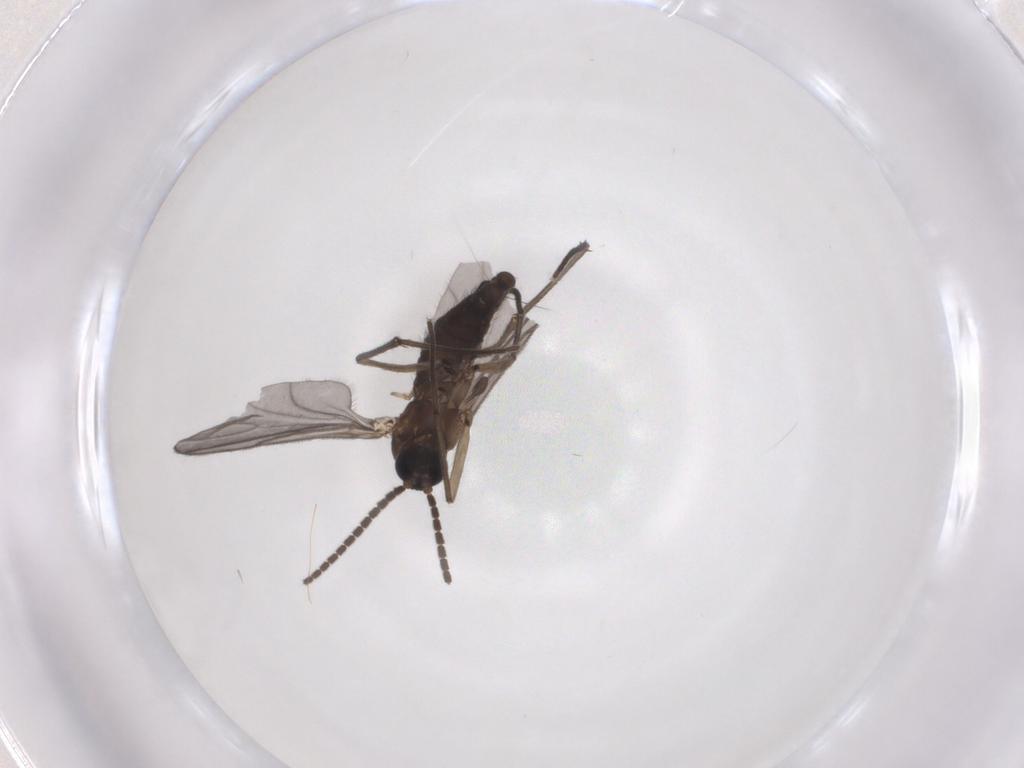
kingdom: Animalia
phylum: Arthropoda
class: Insecta
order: Diptera
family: Sciaridae
